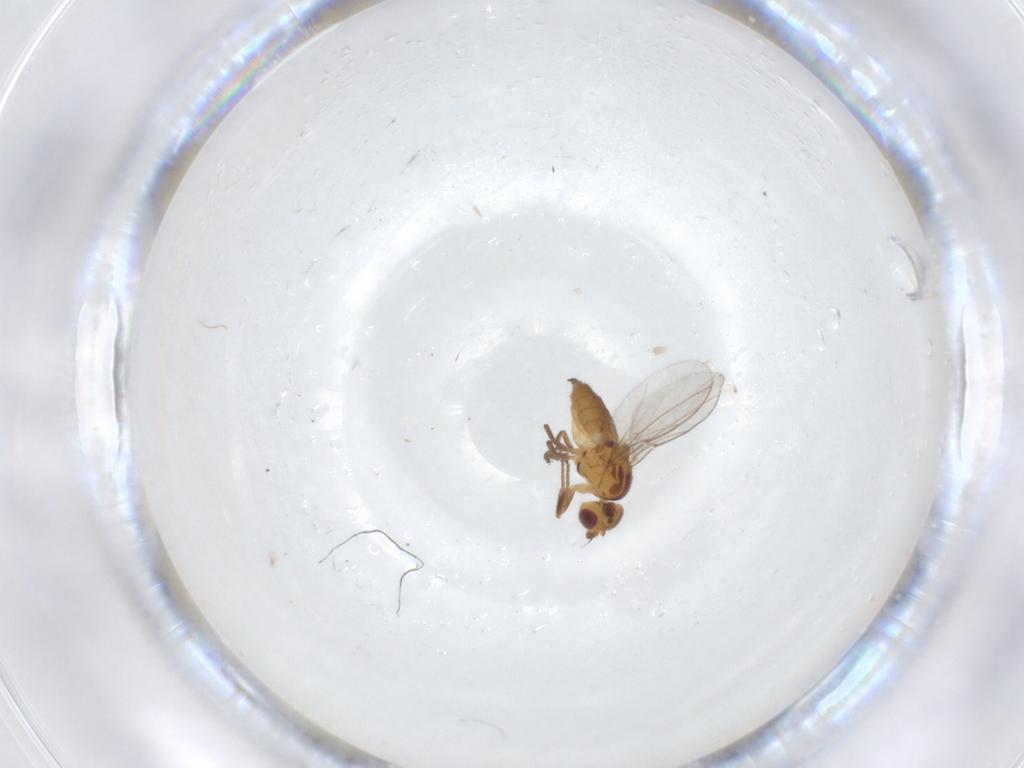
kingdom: Animalia
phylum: Arthropoda
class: Insecta
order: Diptera
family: Chloropidae
